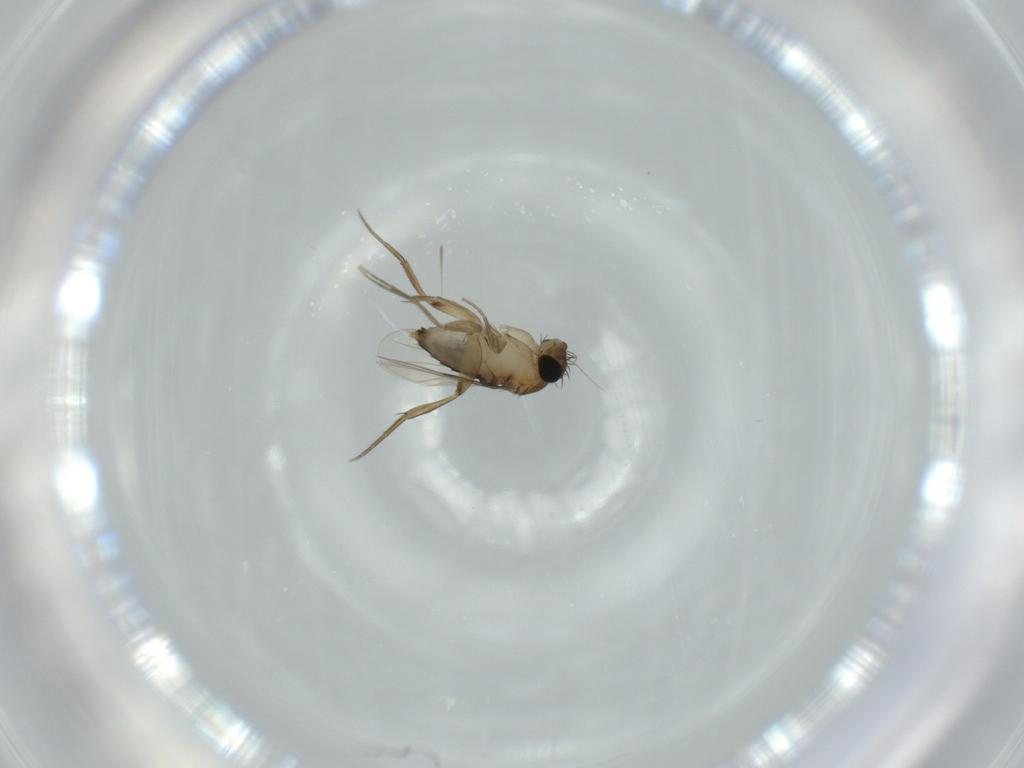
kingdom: Animalia
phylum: Arthropoda
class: Insecta
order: Diptera
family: Phoridae
